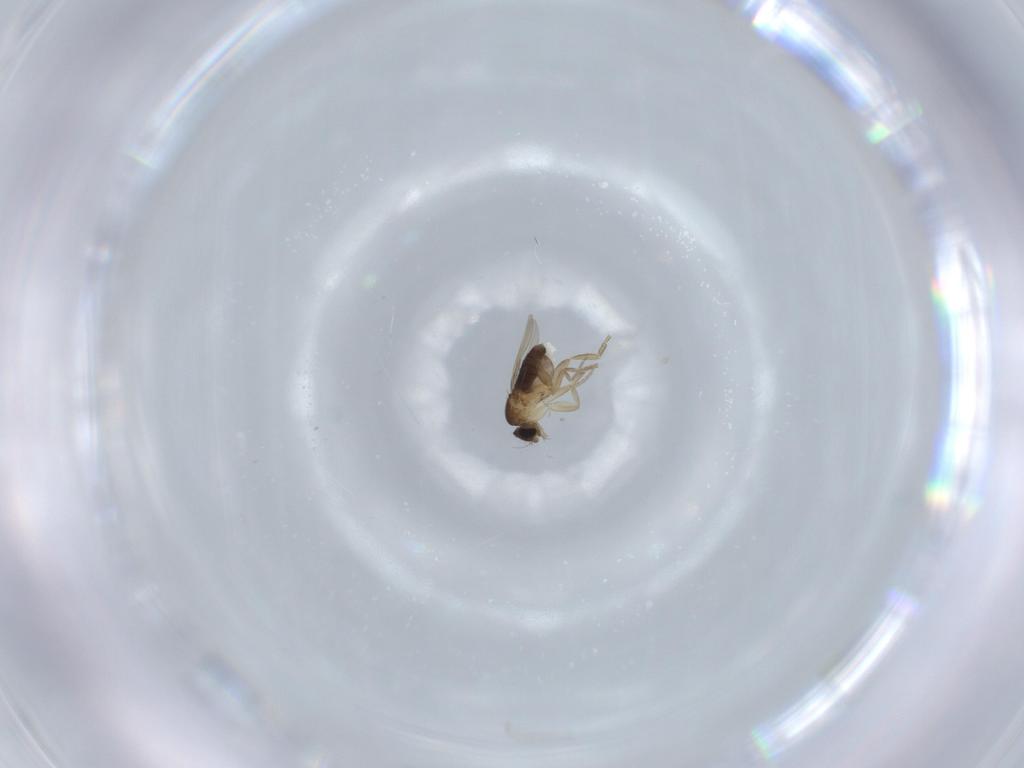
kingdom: Animalia
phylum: Arthropoda
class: Insecta
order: Diptera
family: Phoridae
